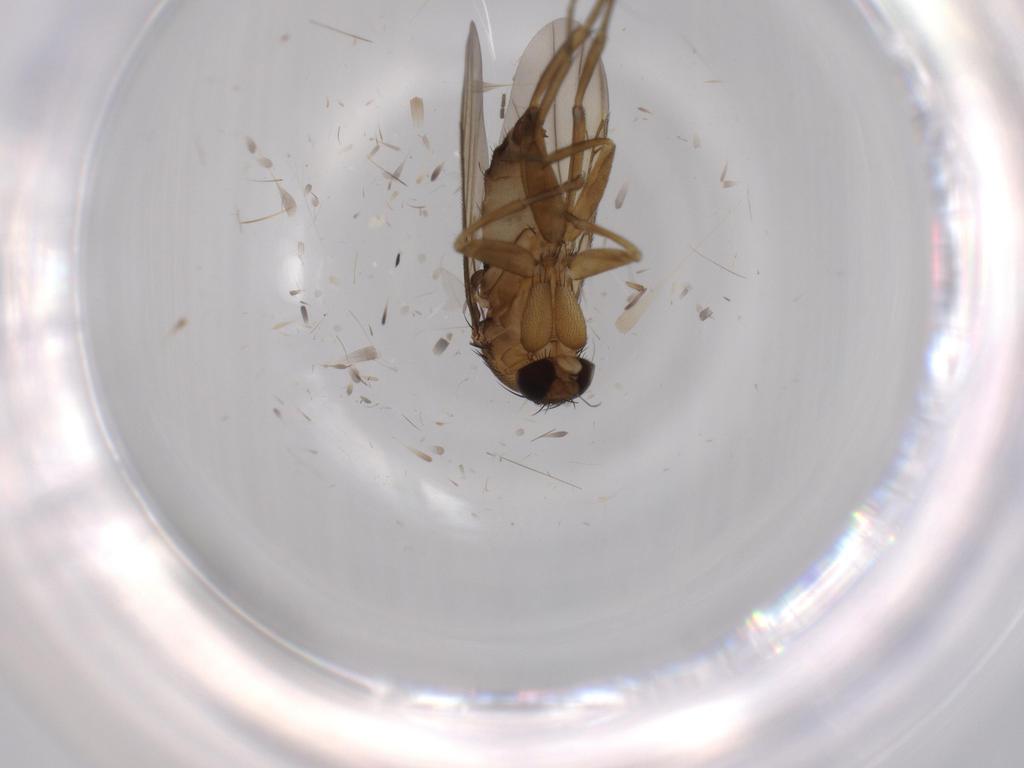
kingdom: Animalia
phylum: Arthropoda
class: Insecta
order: Diptera
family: Phoridae
